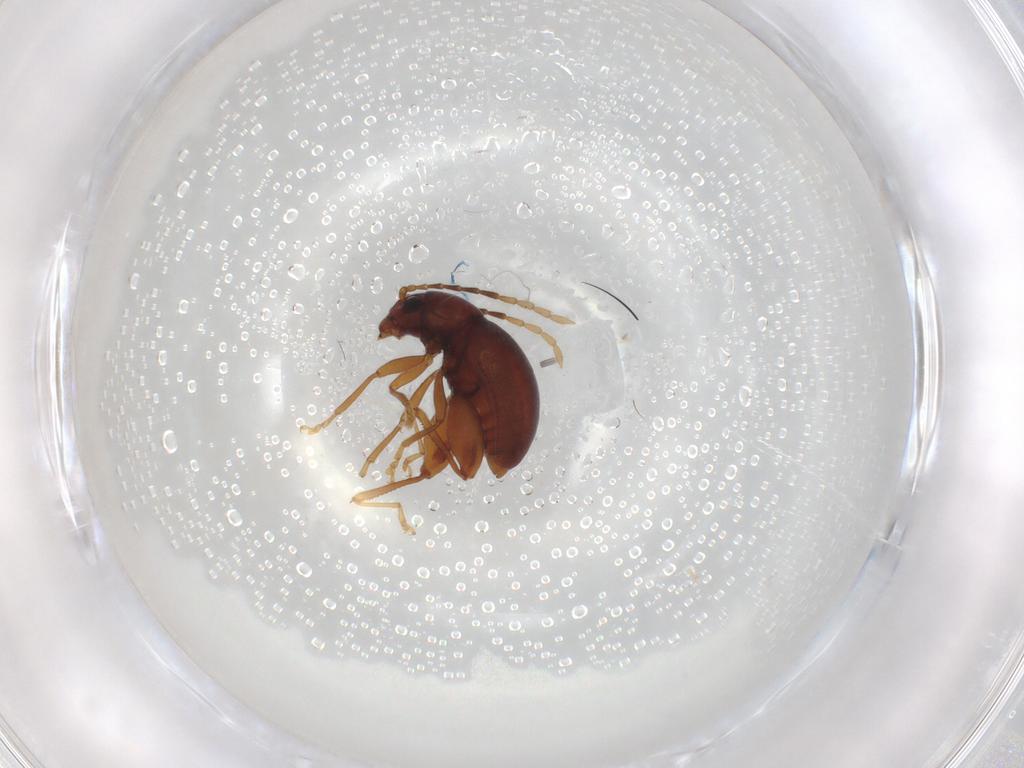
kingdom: Animalia
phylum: Arthropoda
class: Insecta
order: Coleoptera
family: Chrysomelidae
